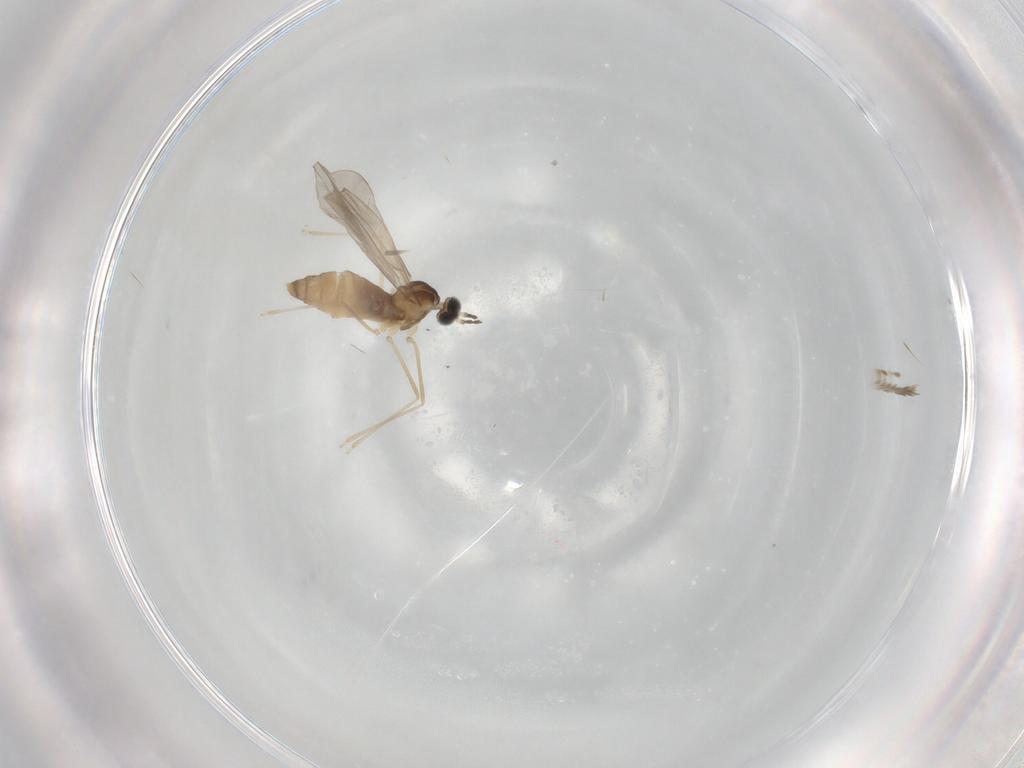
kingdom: Animalia
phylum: Arthropoda
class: Insecta
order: Diptera
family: Cecidomyiidae
